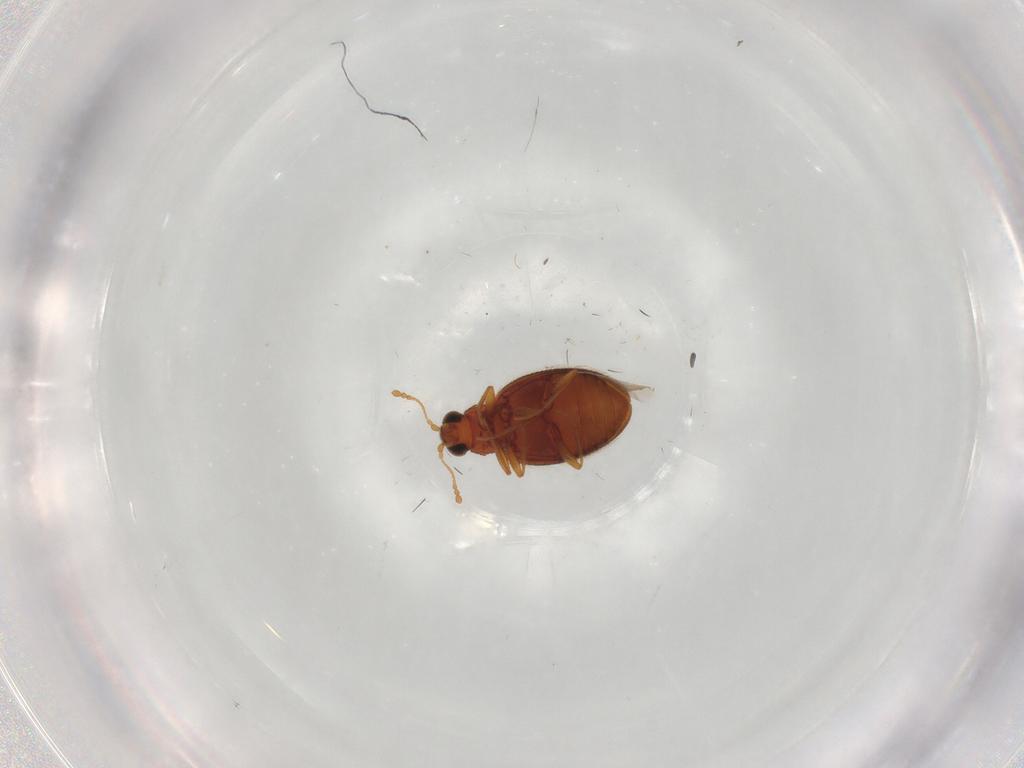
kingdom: Animalia
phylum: Arthropoda
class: Insecta
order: Coleoptera
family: Latridiidae
